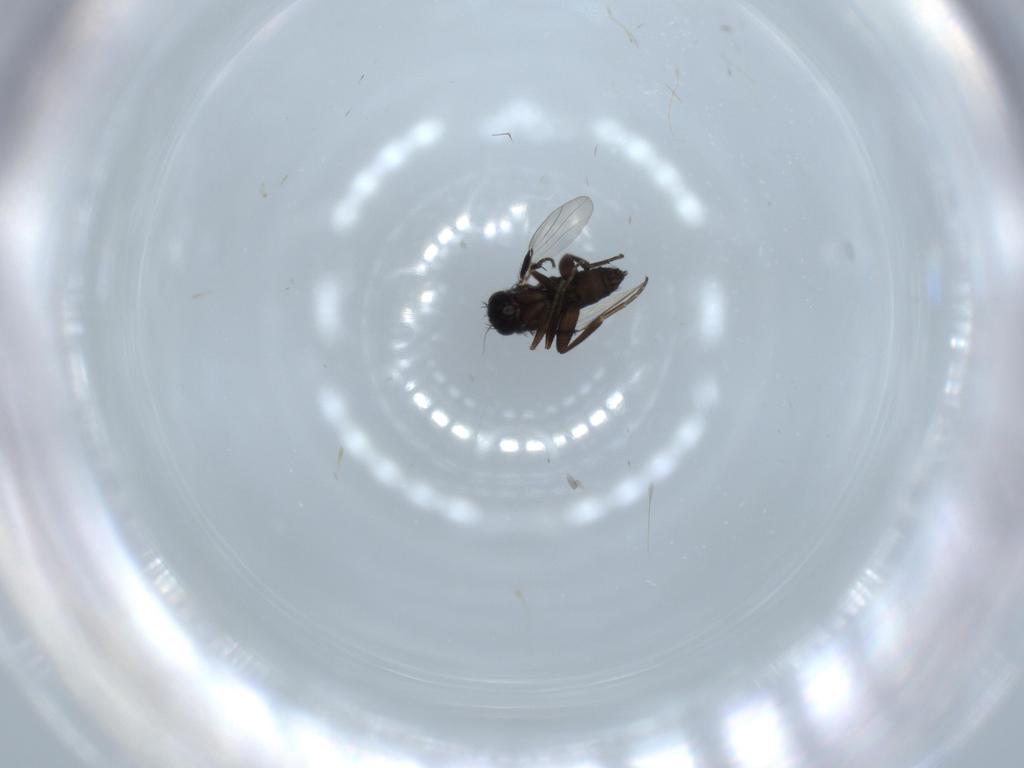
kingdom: Animalia
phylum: Arthropoda
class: Insecta
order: Diptera
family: Phoridae
